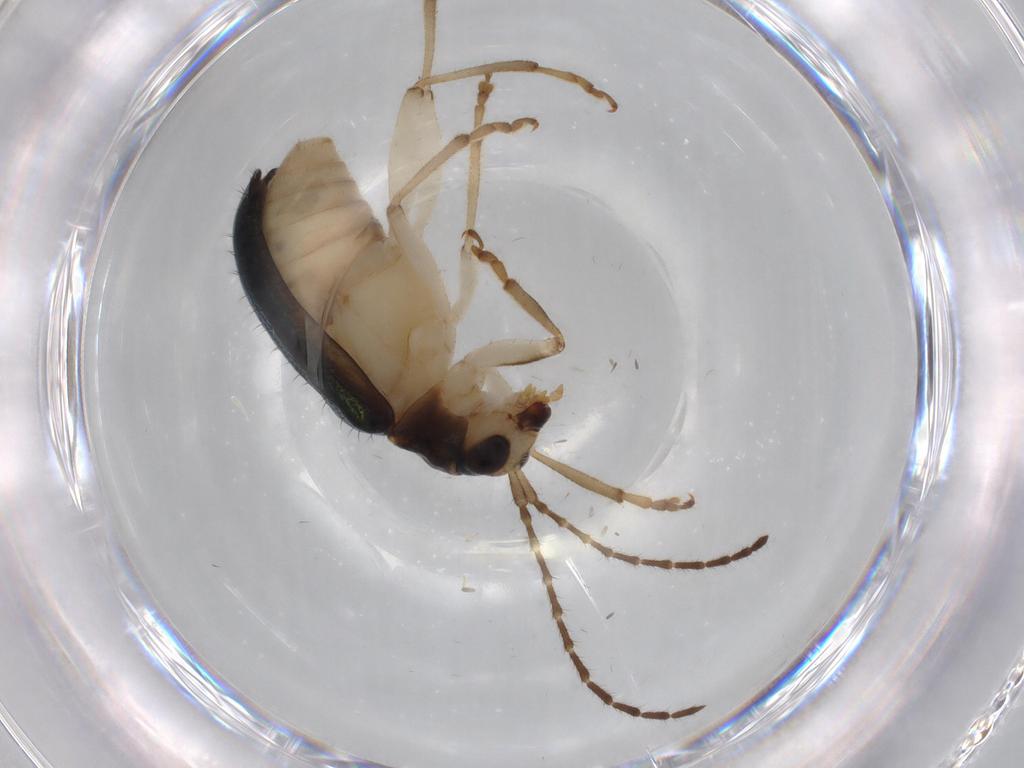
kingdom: Animalia
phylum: Arthropoda
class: Insecta
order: Coleoptera
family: Chrysomelidae
